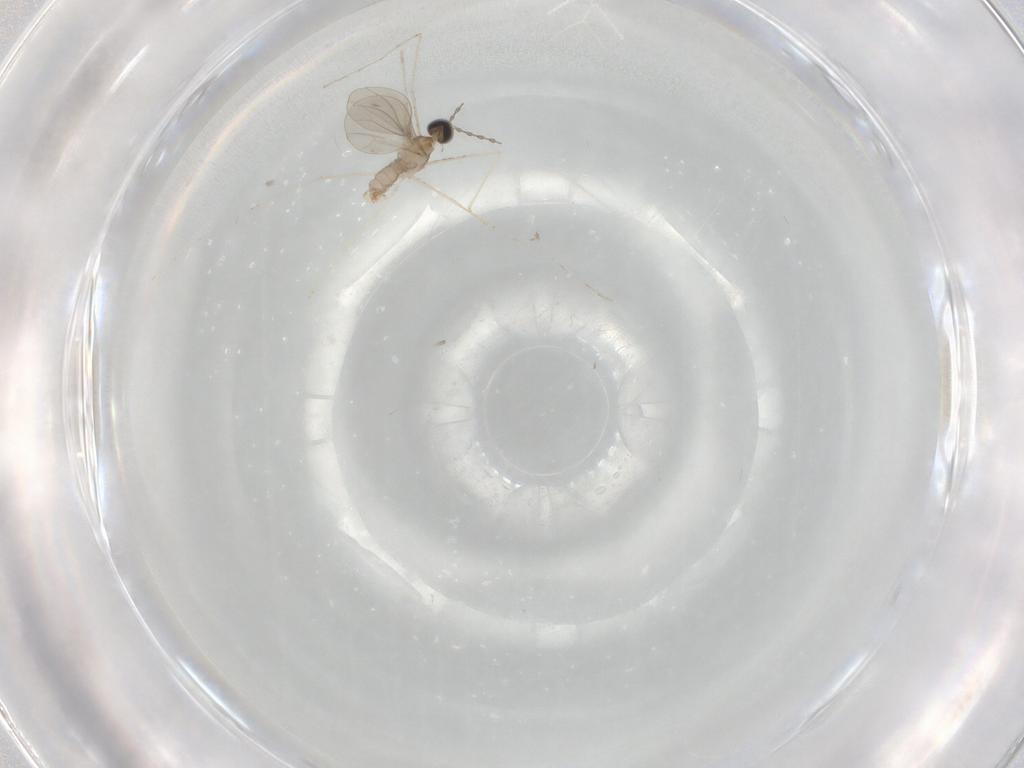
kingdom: Animalia
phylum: Arthropoda
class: Insecta
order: Diptera
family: Cecidomyiidae
